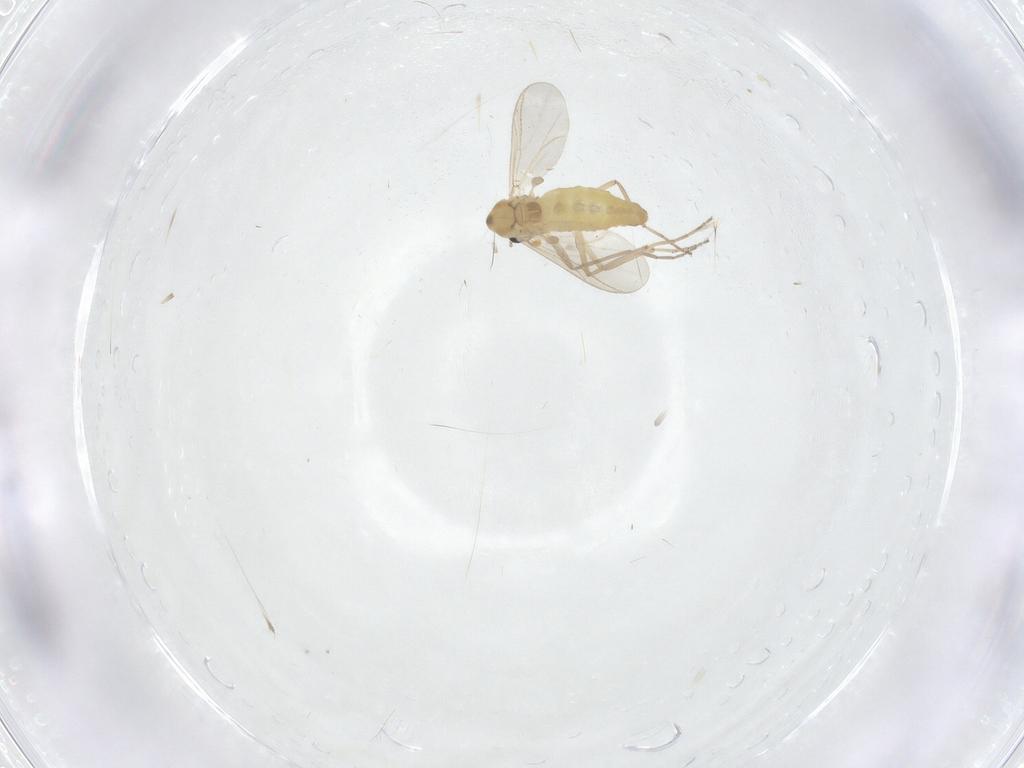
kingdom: Animalia
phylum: Arthropoda
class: Insecta
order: Diptera
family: Chironomidae
